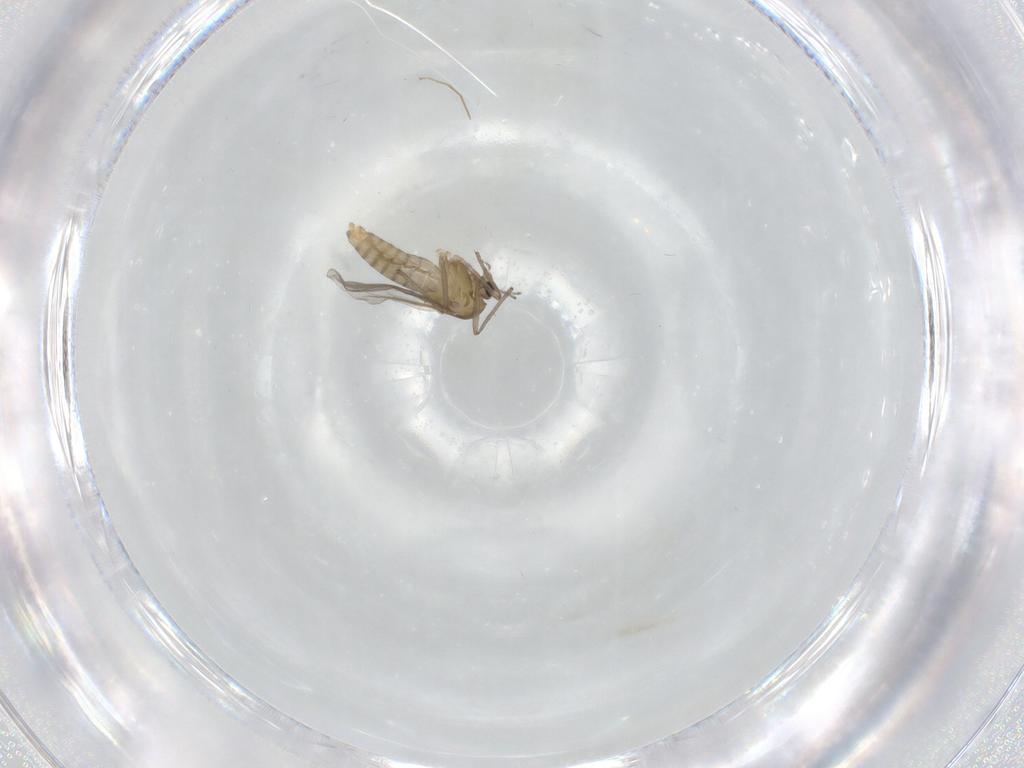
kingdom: Animalia
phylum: Arthropoda
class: Insecta
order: Diptera
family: Chironomidae
